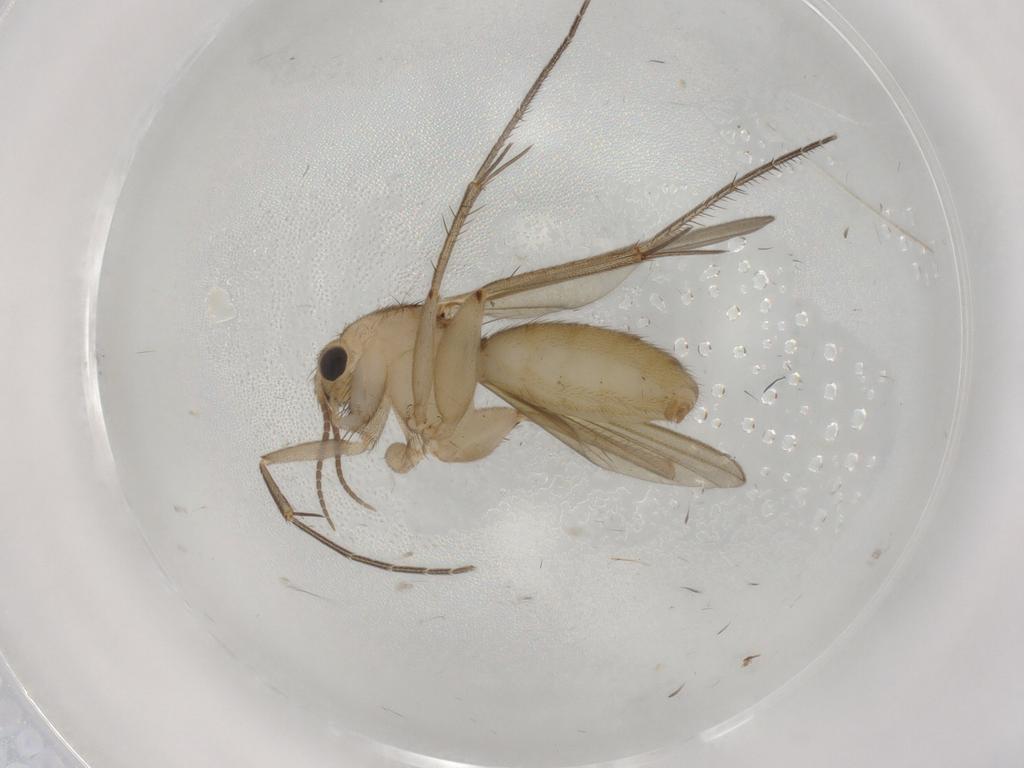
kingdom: Animalia
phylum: Arthropoda
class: Insecta
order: Diptera
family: Mycetophilidae
